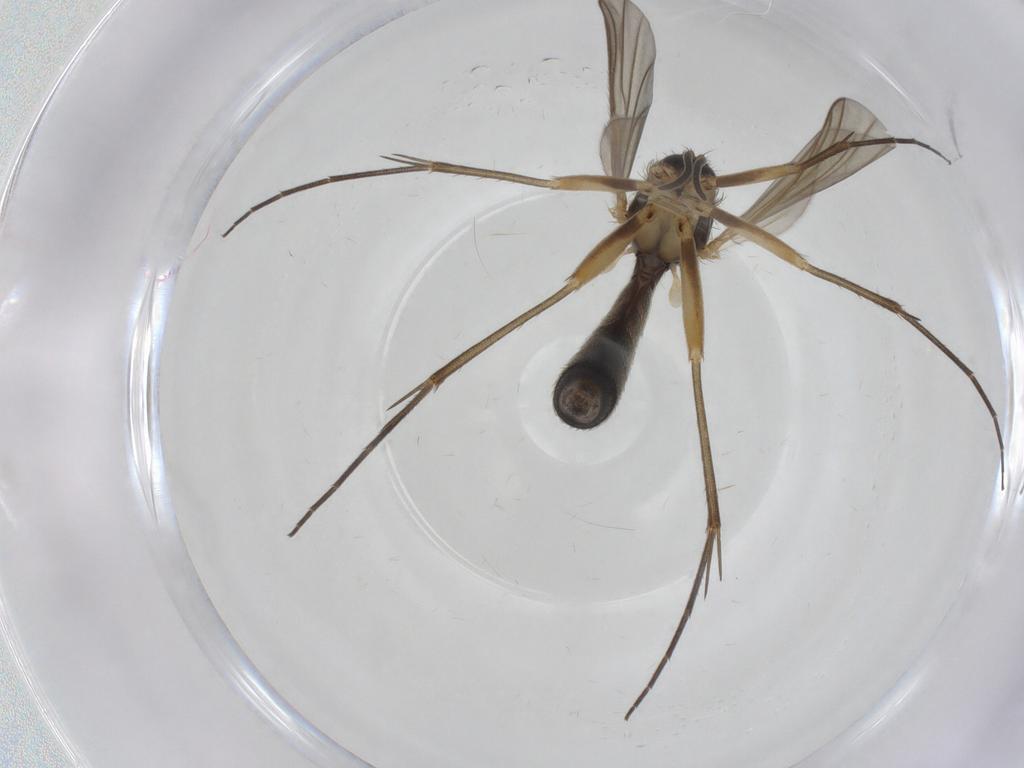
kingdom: Animalia
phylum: Arthropoda
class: Insecta
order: Diptera
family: Mycetophilidae
